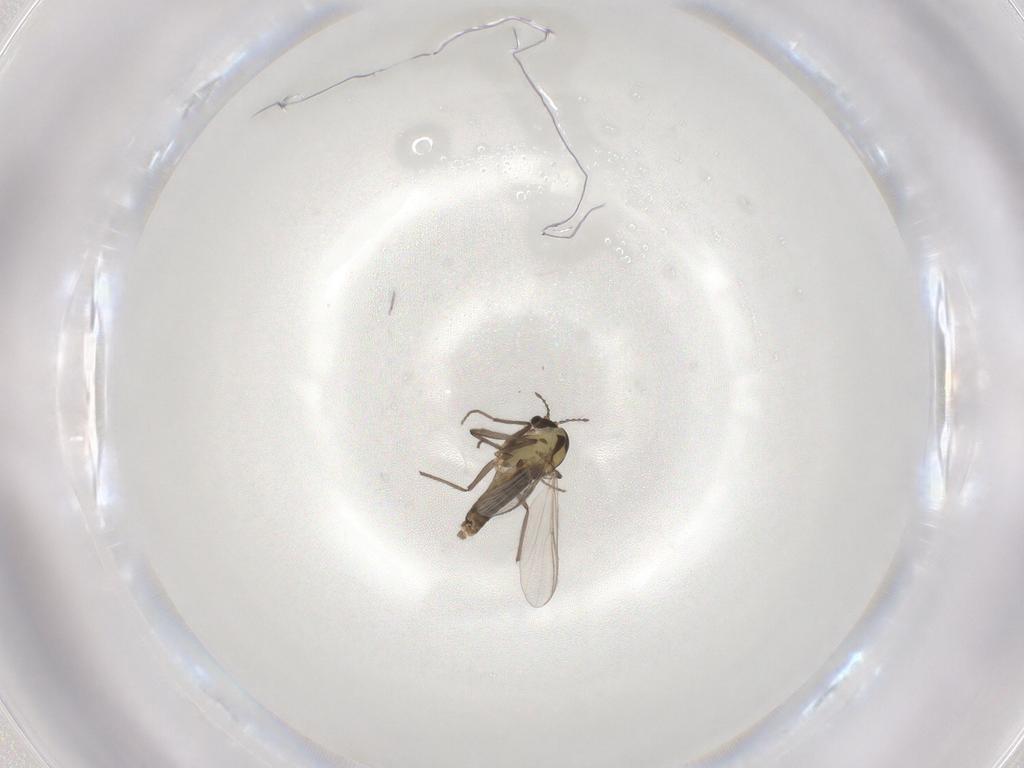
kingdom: Animalia
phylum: Arthropoda
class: Insecta
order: Diptera
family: Chironomidae
